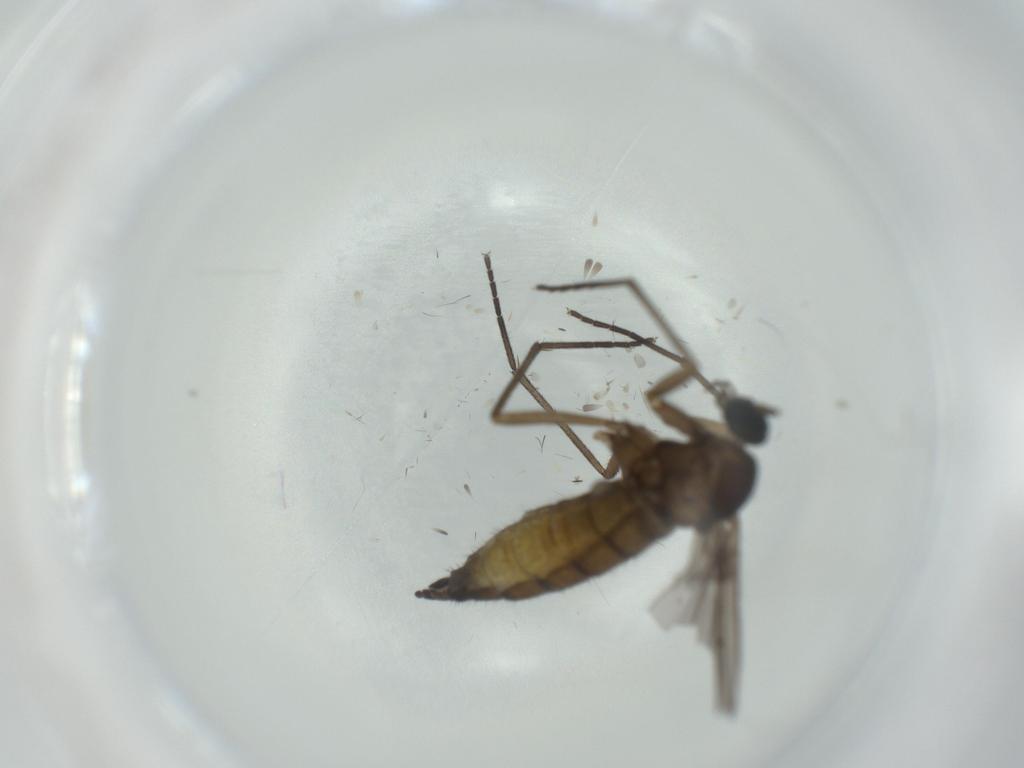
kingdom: Animalia
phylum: Arthropoda
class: Insecta
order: Diptera
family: Sciaridae
